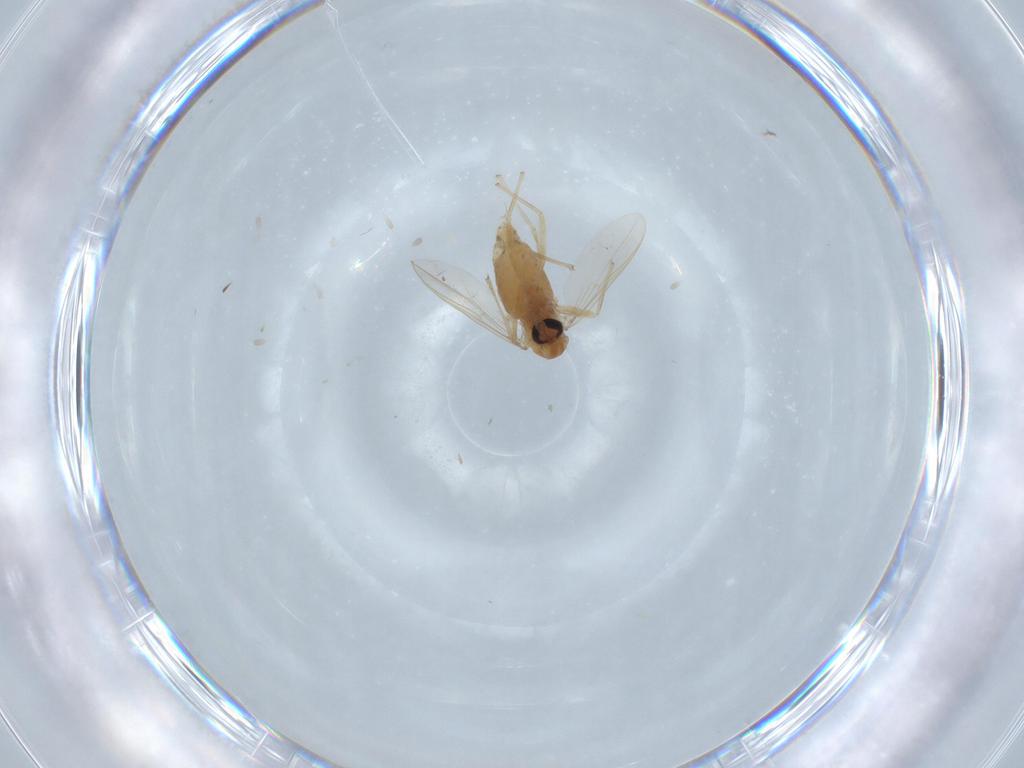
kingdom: Animalia
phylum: Arthropoda
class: Insecta
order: Diptera
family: Chironomidae
